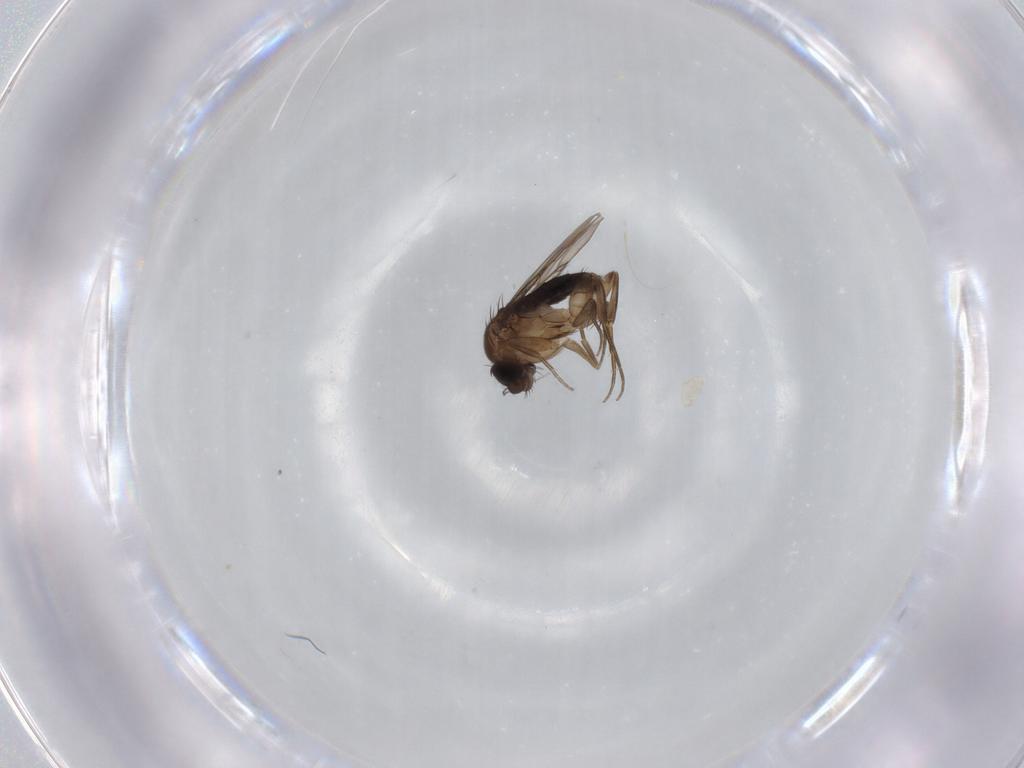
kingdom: Animalia
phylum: Arthropoda
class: Insecta
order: Diptera
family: Phoridae
